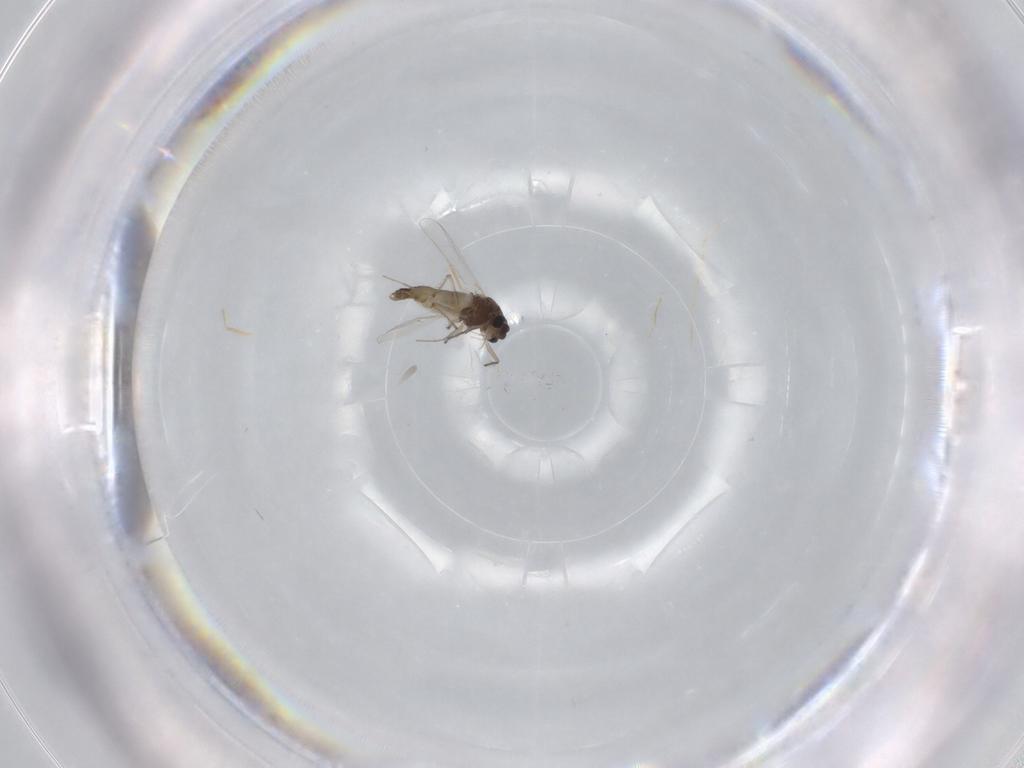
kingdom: Animalia
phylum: Arthropoda
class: Insecta
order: Diptera
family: Chironomidae
